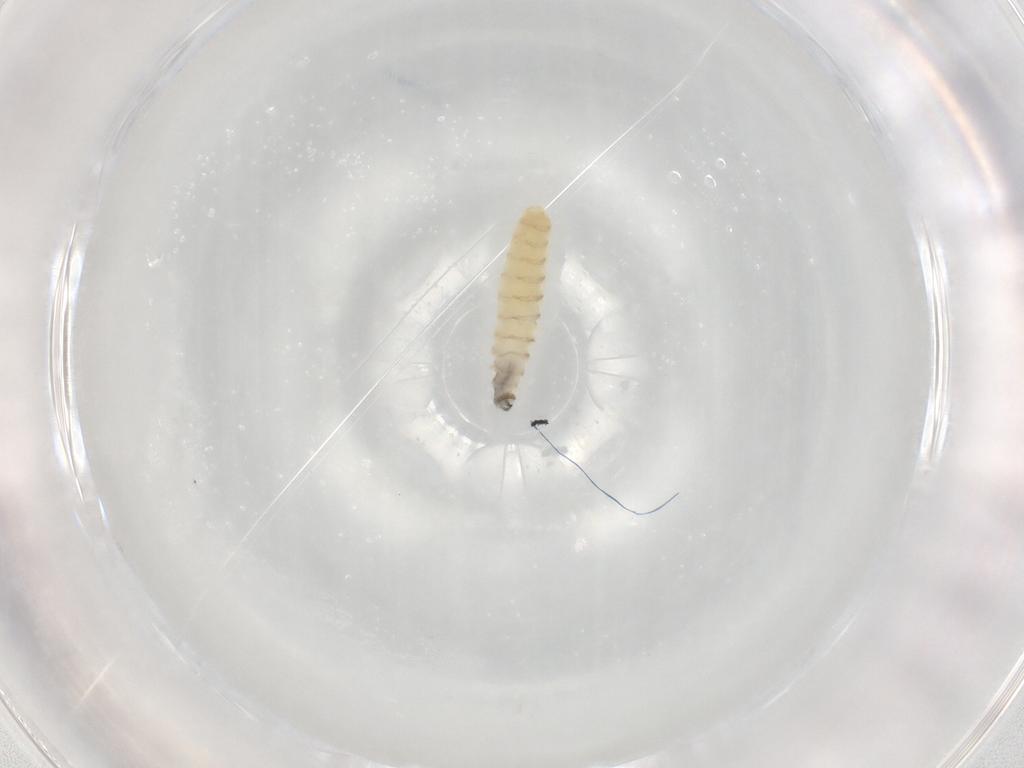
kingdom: Animalia
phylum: Arthropoda
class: Insecta
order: Diptera
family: Sarcophagidae
